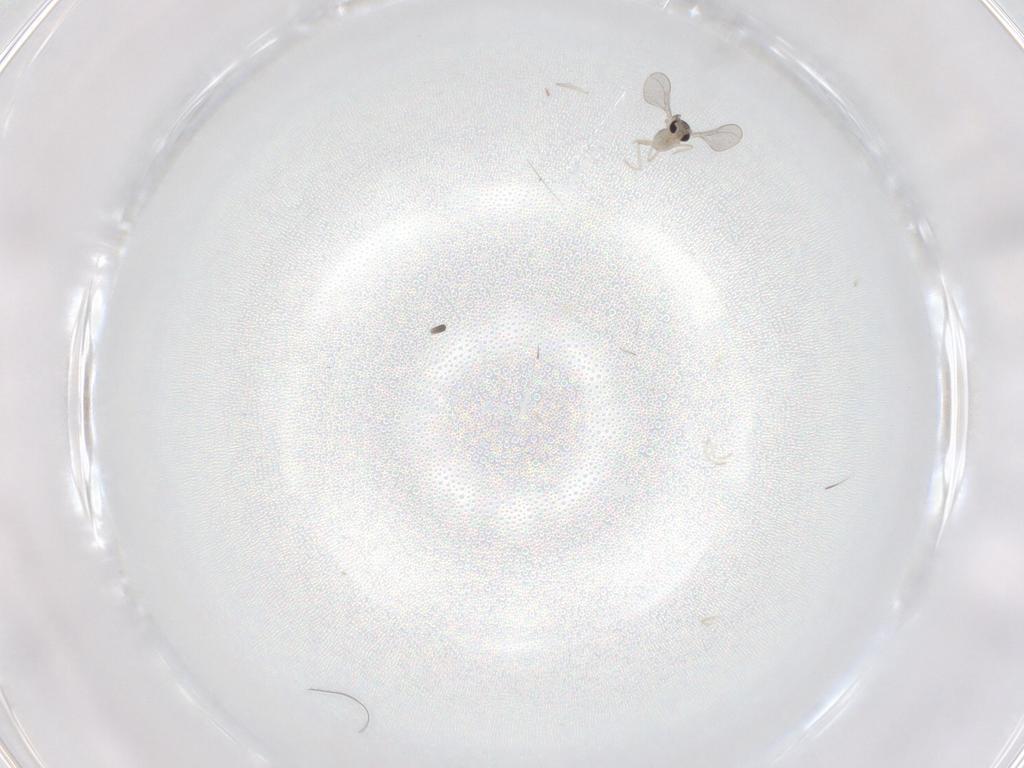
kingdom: Animalia
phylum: Arthropoda
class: Insecta
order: Diptera
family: Cecidomyiidae
